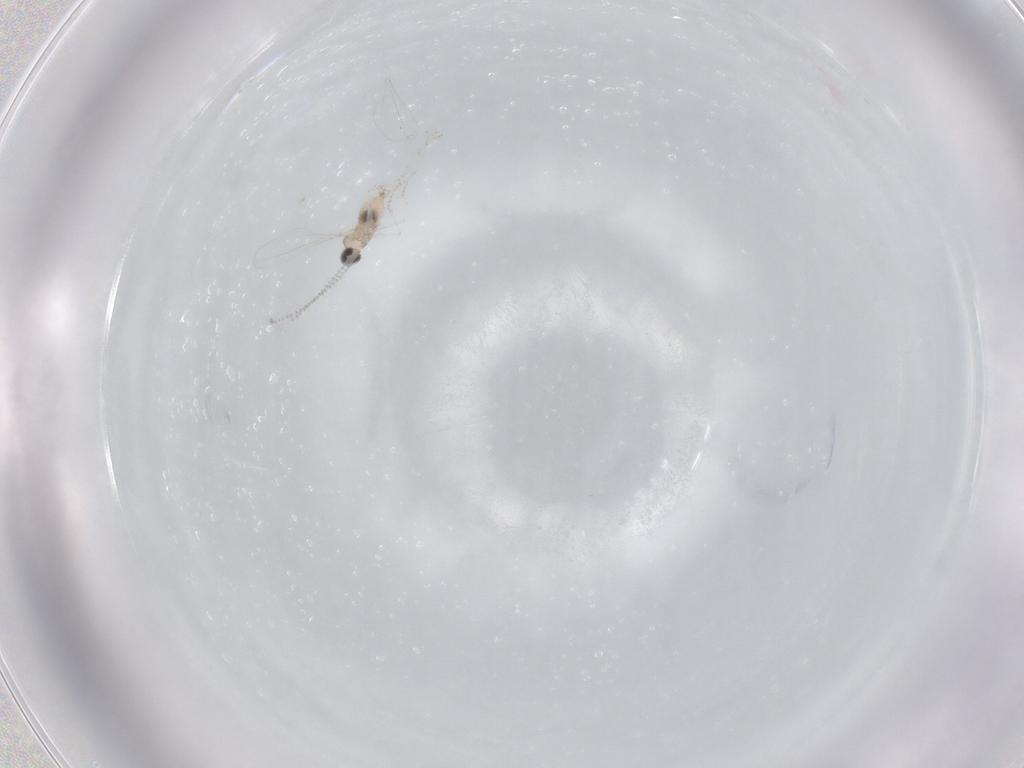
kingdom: Animalia
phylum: Arthropoda
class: Insecta
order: Diptera
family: Cecidomyiidae
